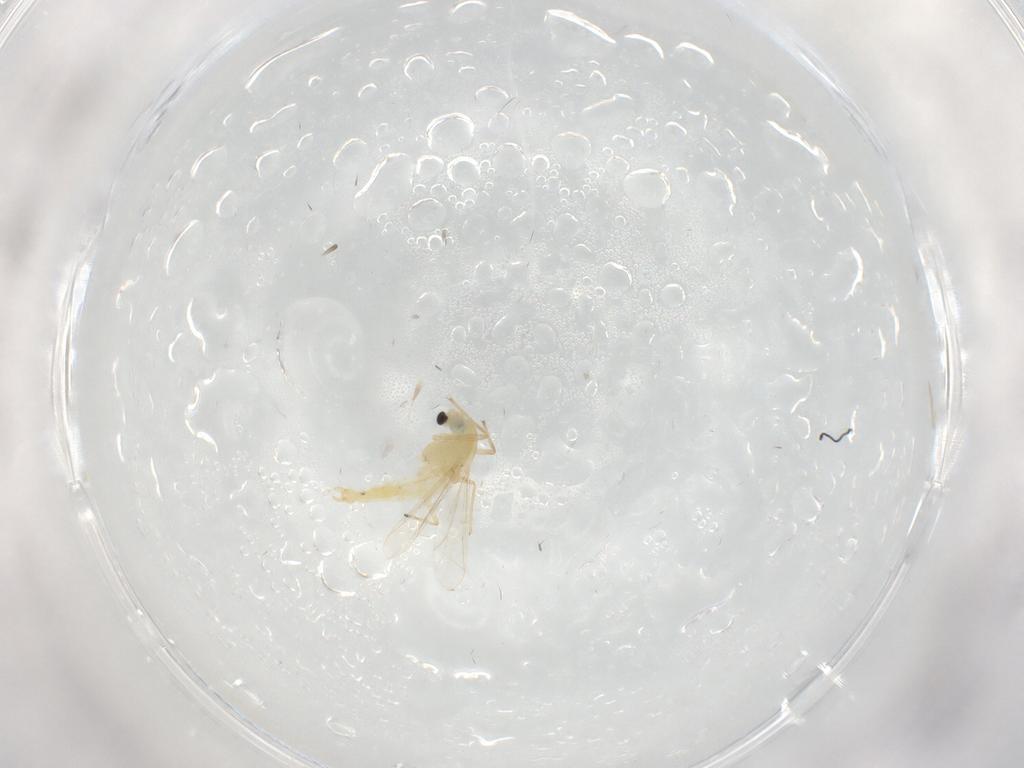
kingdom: Animalia
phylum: Arthropoda
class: Insecta
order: Diptera
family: Chironomidae
